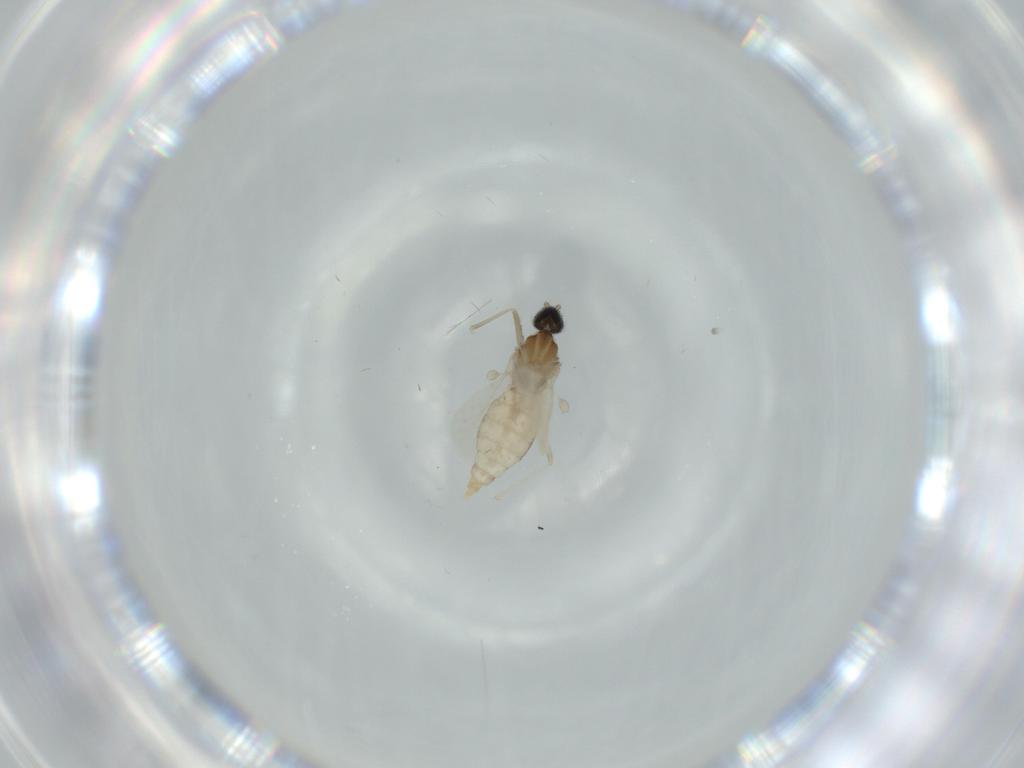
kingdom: Animalia
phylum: Arthropoda
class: Insecta
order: Diptera
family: Cecidomyiidae
